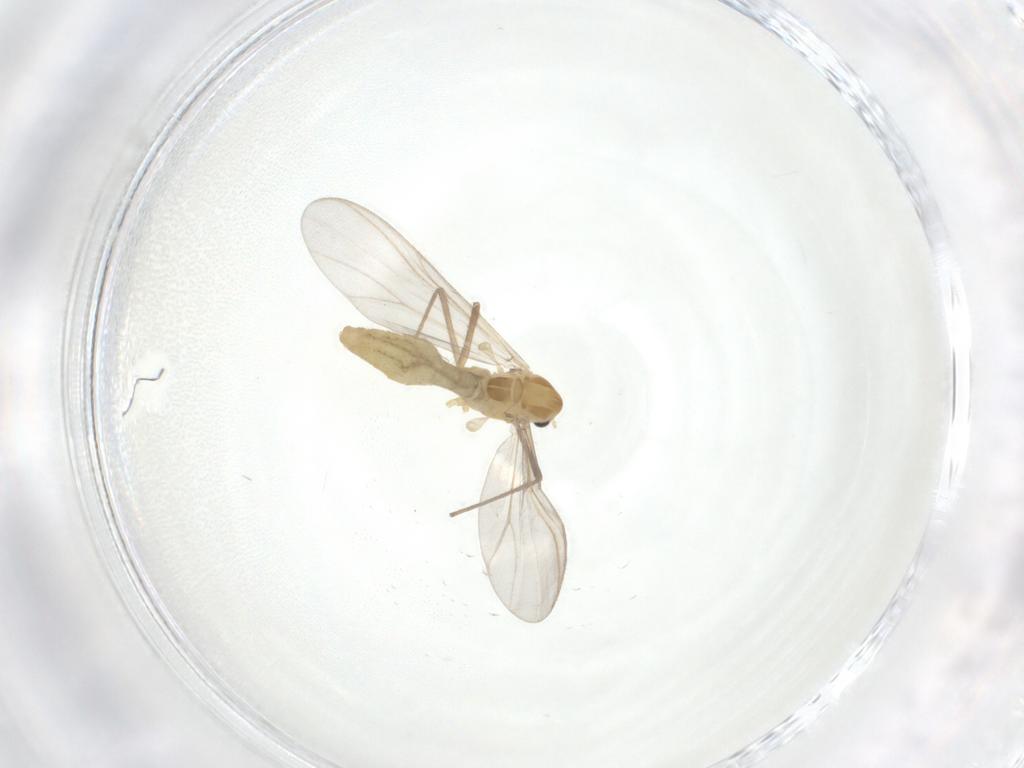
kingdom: Animalia
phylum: Arthropoda
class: Insecta
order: Diptera
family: Chironomidae
